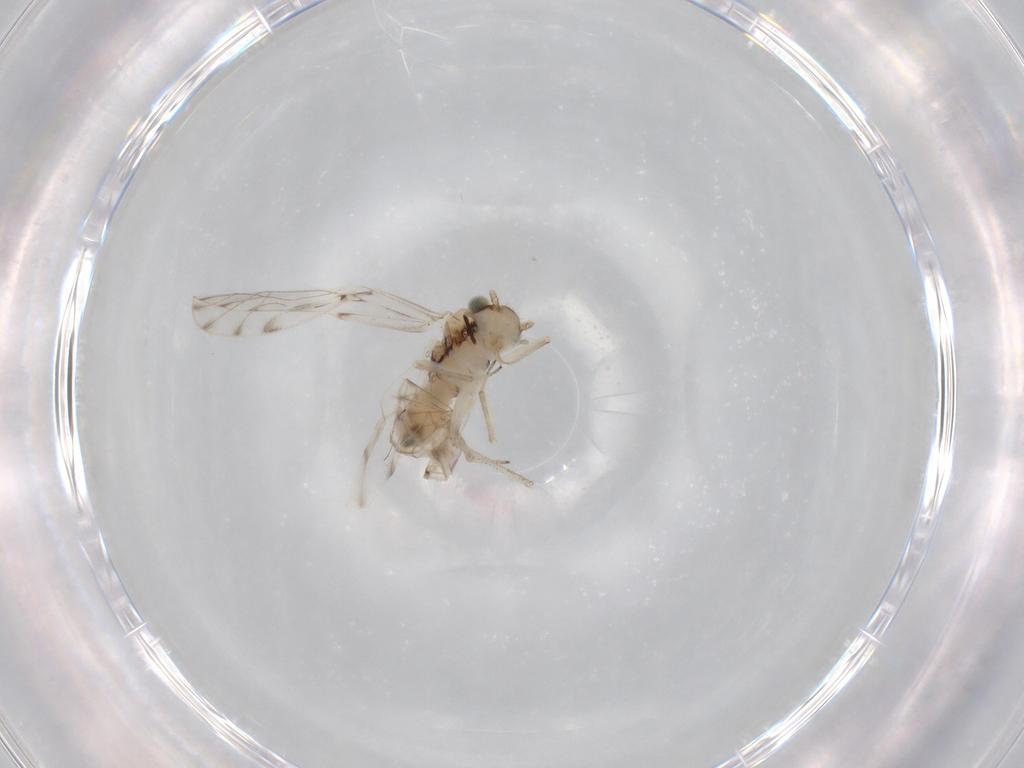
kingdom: Animalia
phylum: Arthropoda
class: Insecta
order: Psocodea
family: Ectopsocidae
